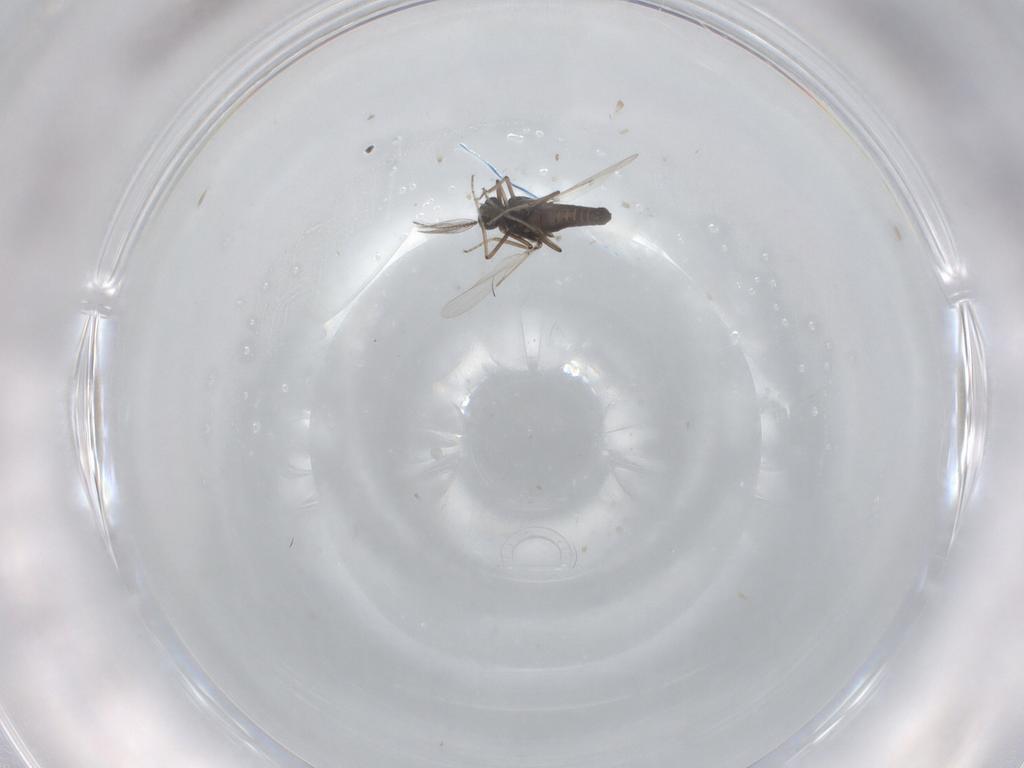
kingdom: Animalia
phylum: Arthropoda
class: Insecta
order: Diptera
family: Ceratopogonidae
